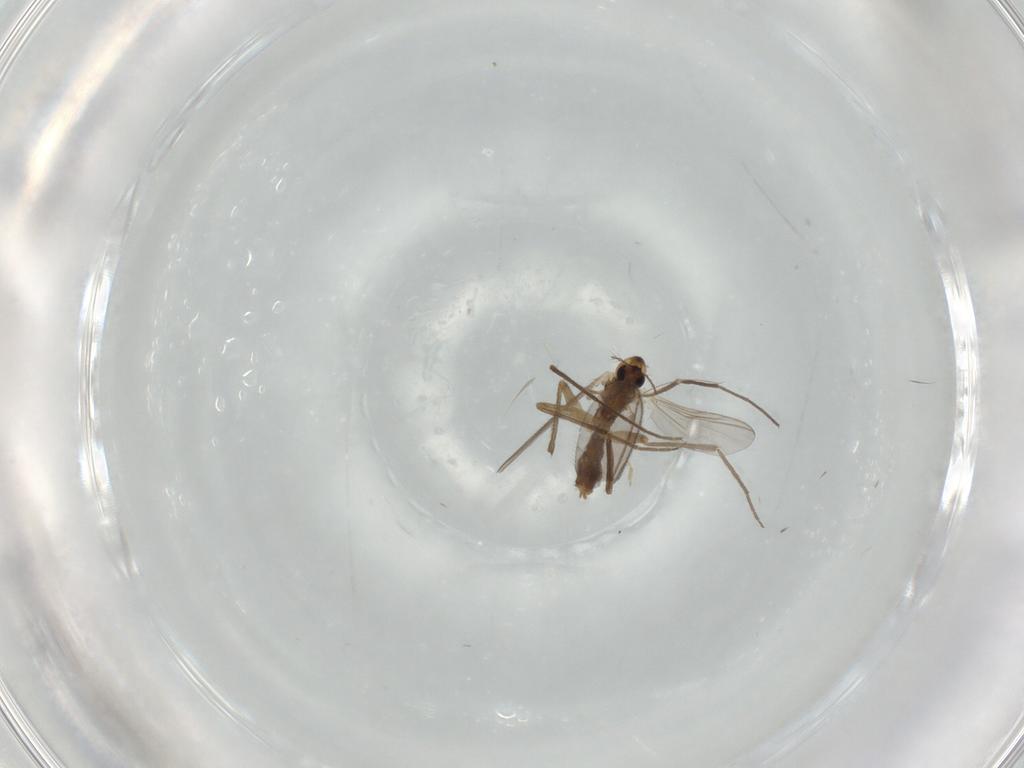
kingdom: Animalia
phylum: Arthropoda
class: Insecta
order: Diptera
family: Chironomidae
